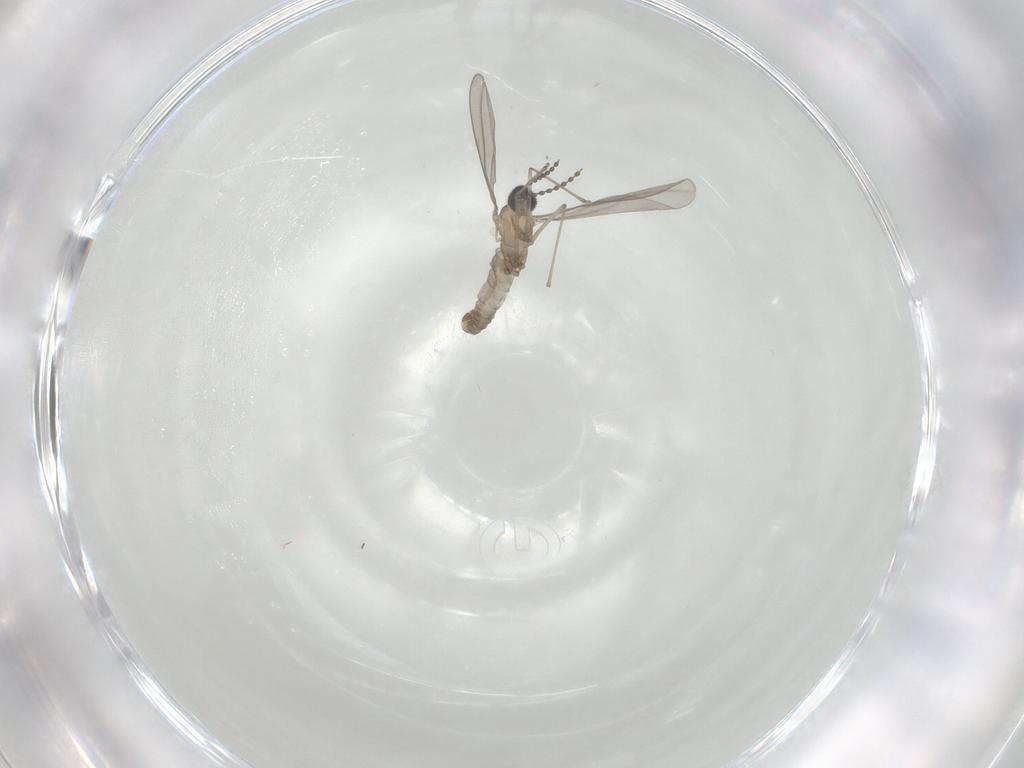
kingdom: Animalia
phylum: Arthropoda
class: Insecta
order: Diptera
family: Cecidomyiidae
